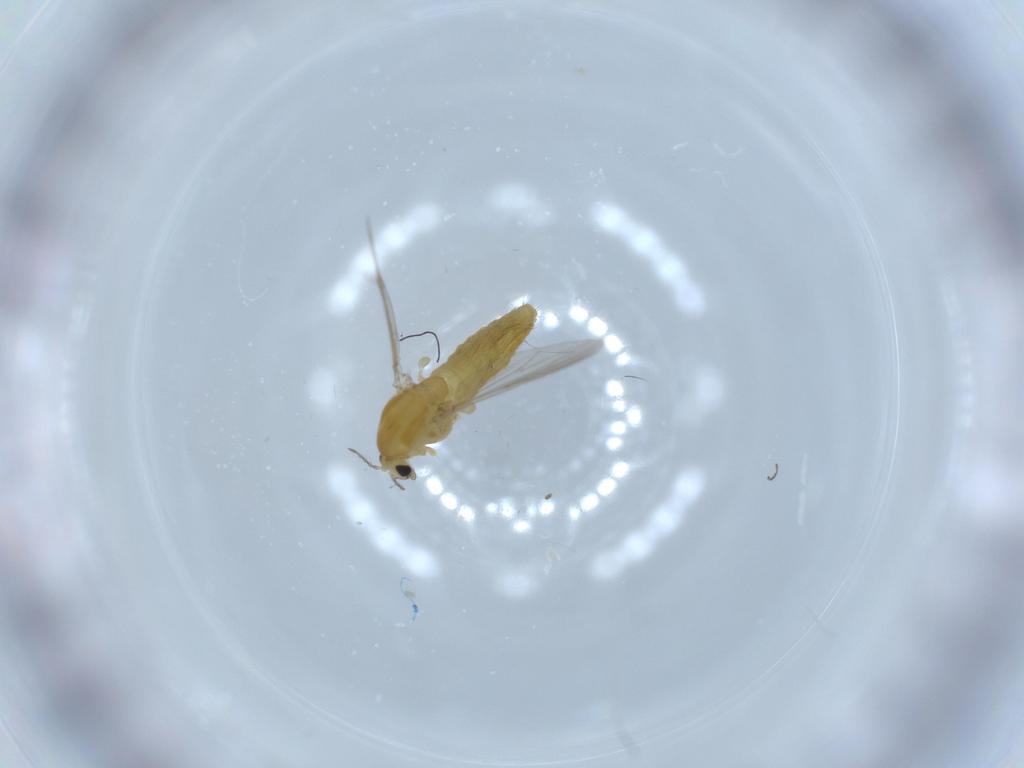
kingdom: Animalia
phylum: Arthropoda
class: Insecta
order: Diptera
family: Chironomidae
